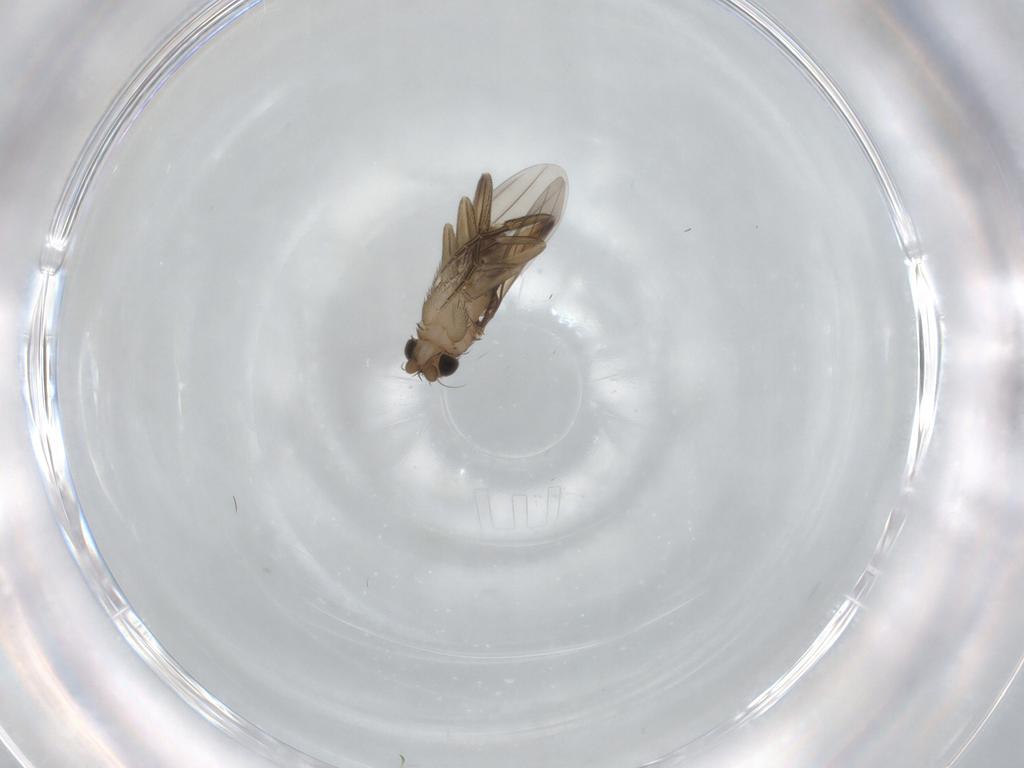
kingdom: Animalia
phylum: Arthropoda
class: Insecta
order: Diptera
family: Phoridae
